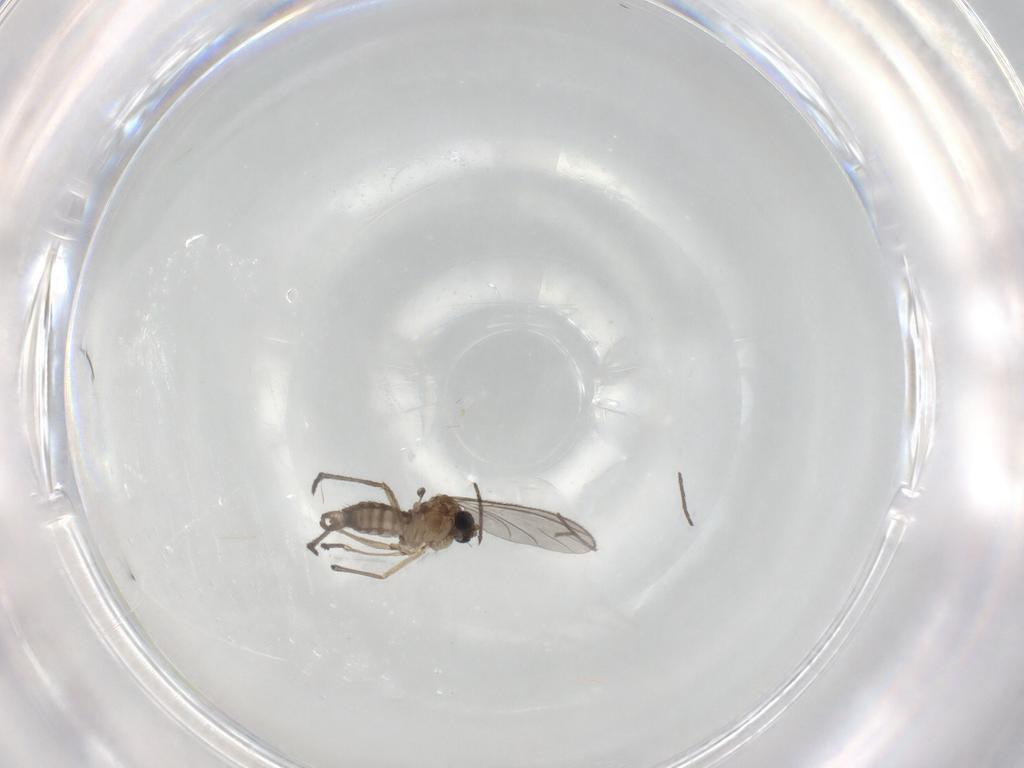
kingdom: Animalia
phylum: Arthropoda
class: Insecta
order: Diptera
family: Sciaridae
